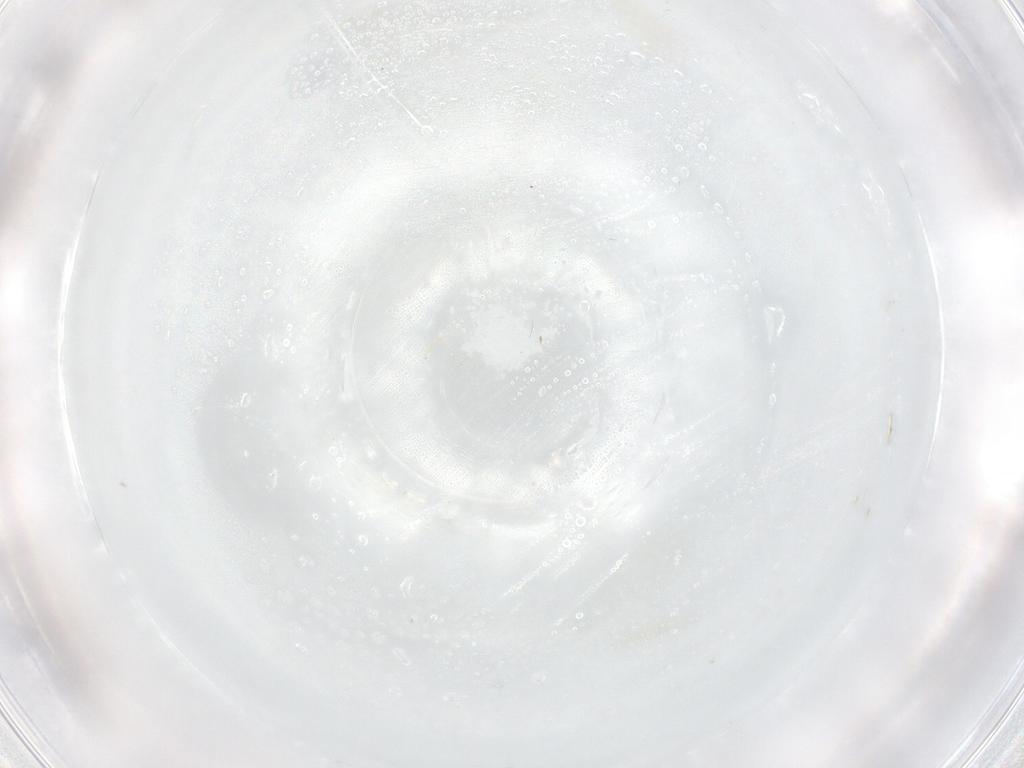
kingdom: Animalia
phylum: Arthropoda
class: Insecta
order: Psocodea
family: Lepidopsocidae
